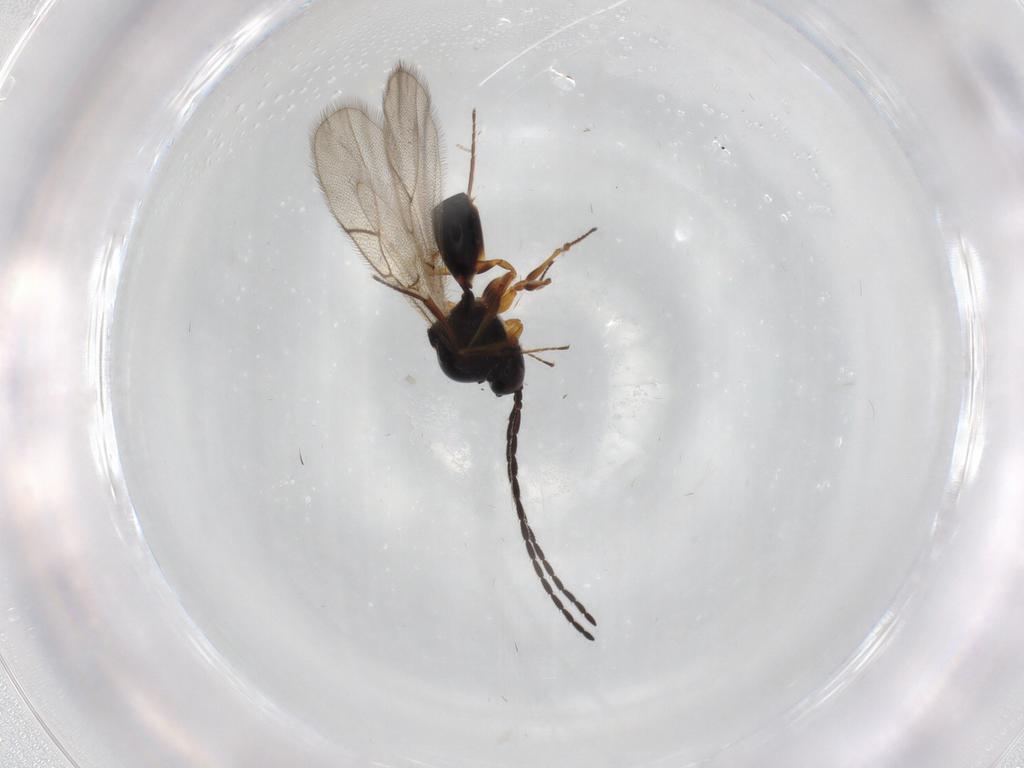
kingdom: Animalia
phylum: Arthropoda
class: Insecta
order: Hymenoptera
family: Figitidae
